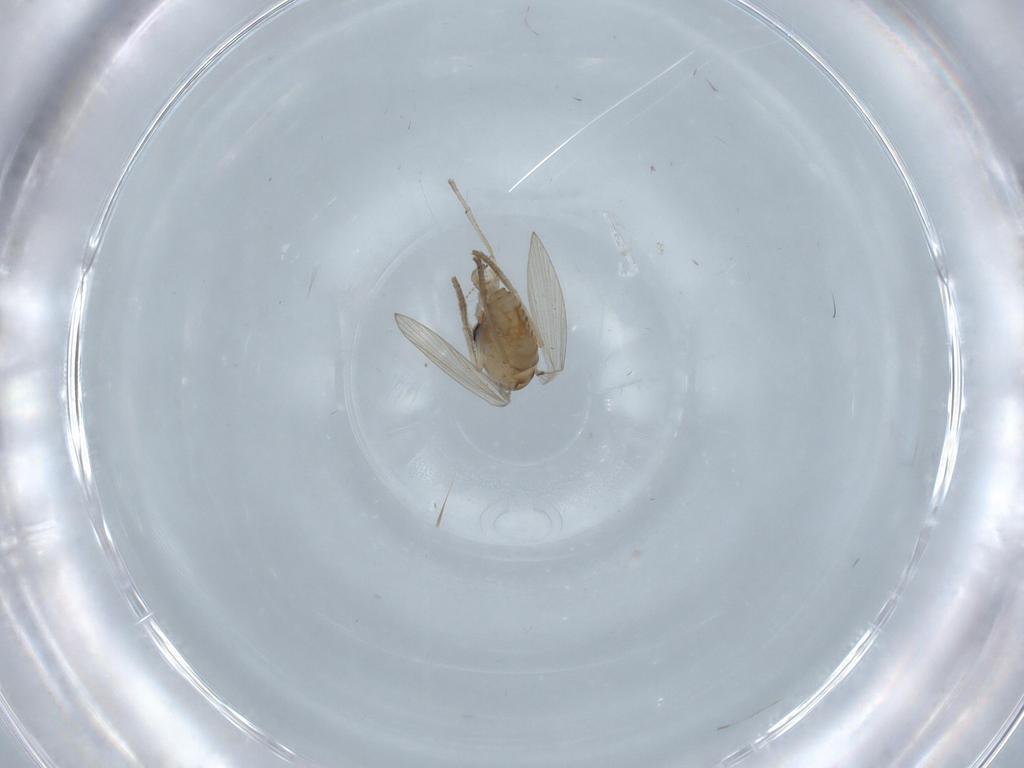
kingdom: Animalia
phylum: Arthropoda
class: Insecta
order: Diptera
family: Psychodidae
